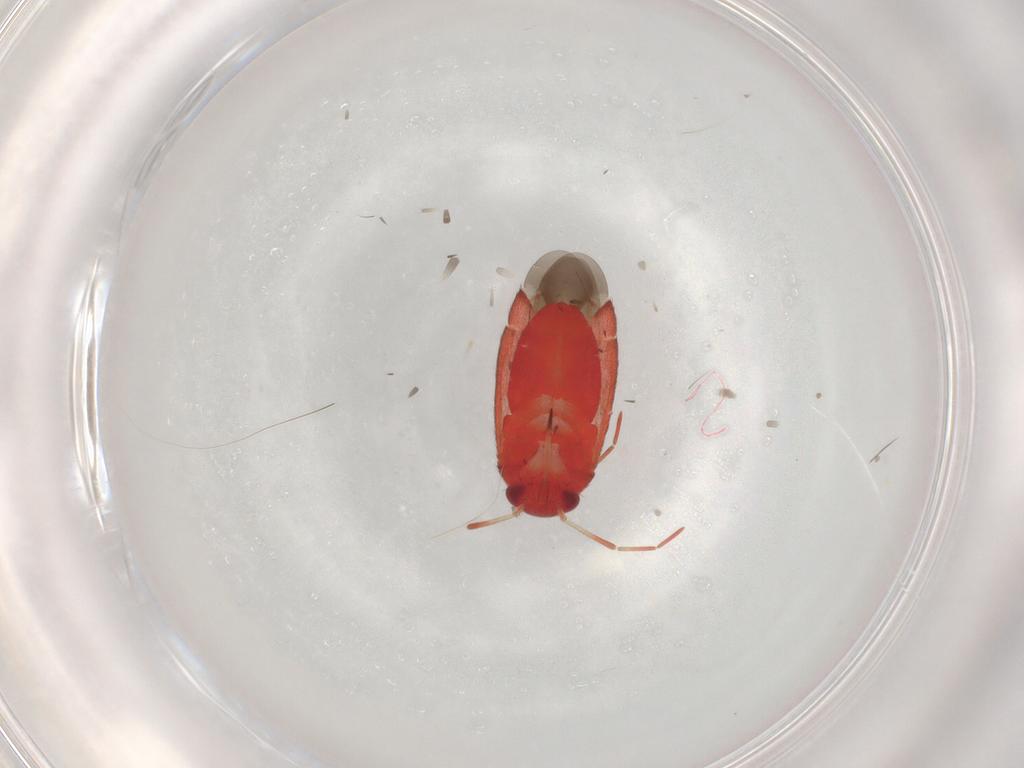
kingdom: Animalia
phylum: Arthropoda
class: Insecta
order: Hemiptera
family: Miridae
